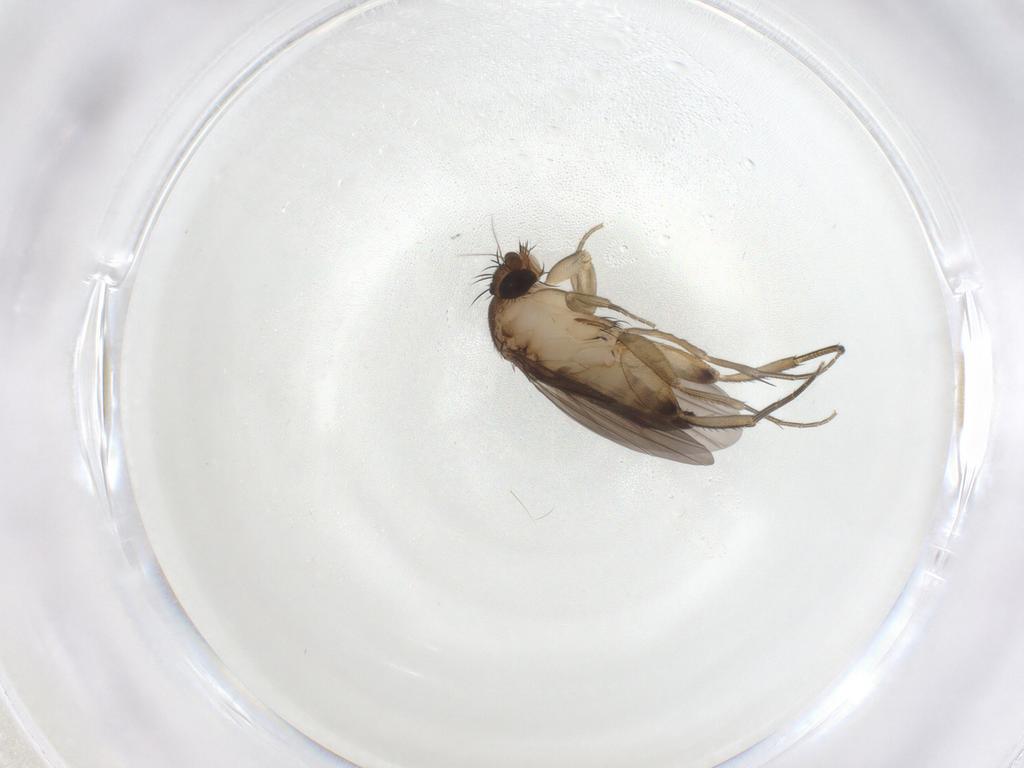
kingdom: Animalia
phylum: Arthropoda
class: Insecta
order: Diptera
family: Phoridae
